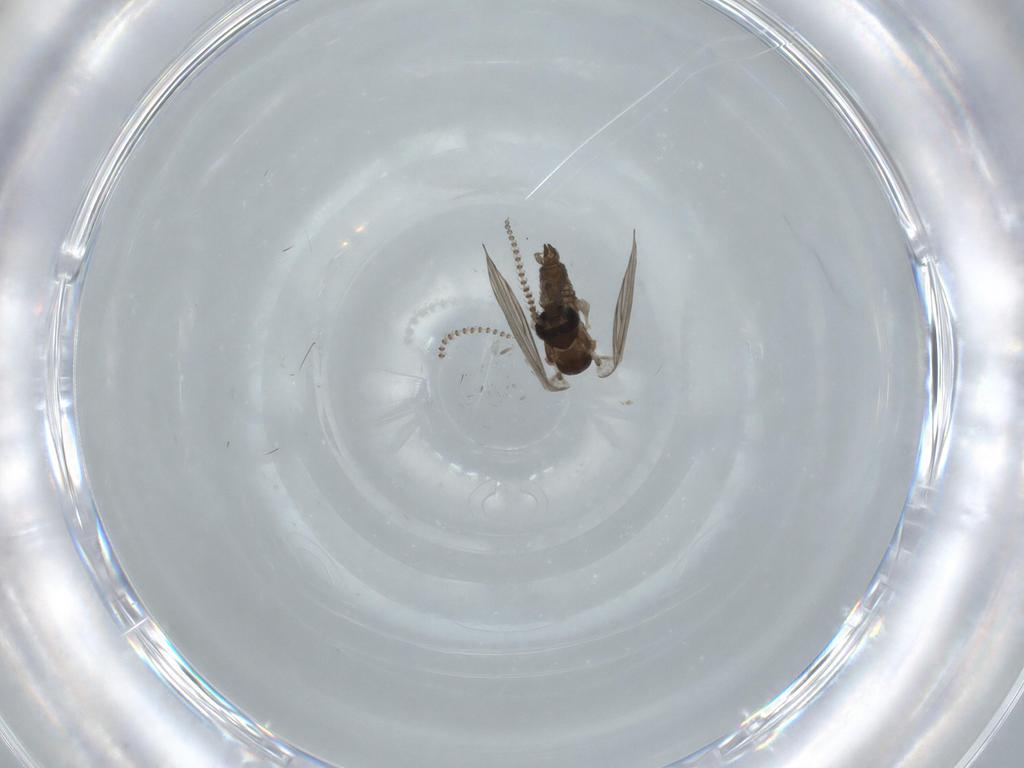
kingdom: Animalia
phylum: Arthropoda
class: Insecta
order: Diptera
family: Psychodidae
